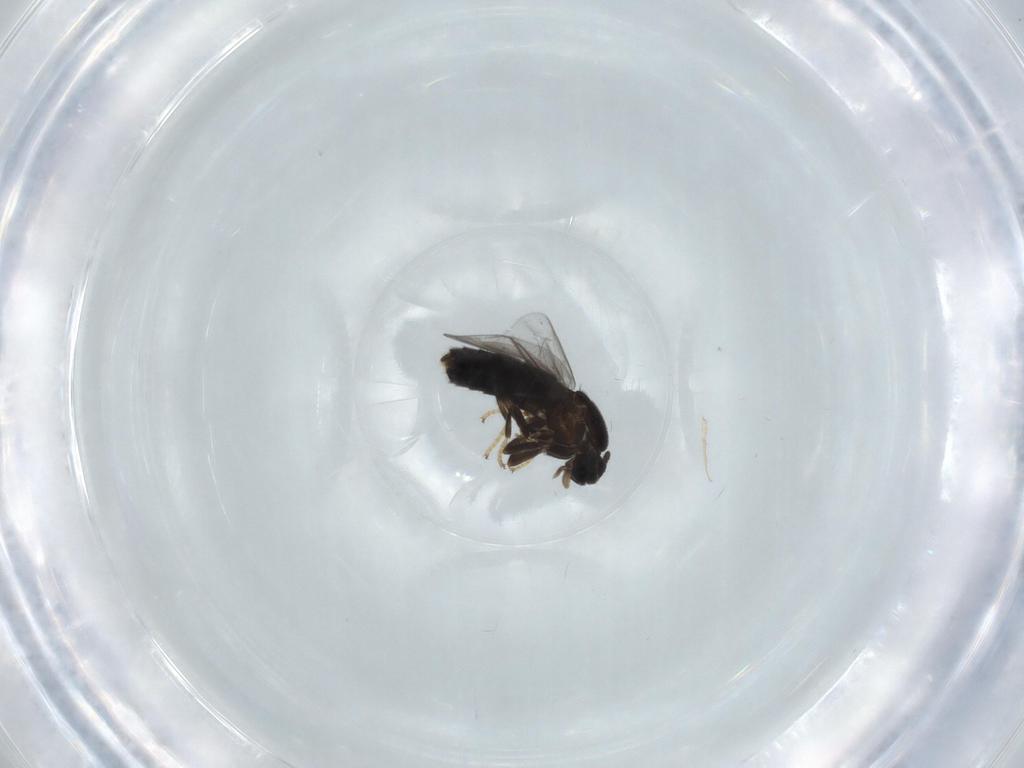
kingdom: Animalia
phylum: Arthropoda
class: Insecta
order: Diptera
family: Scatopsidae
